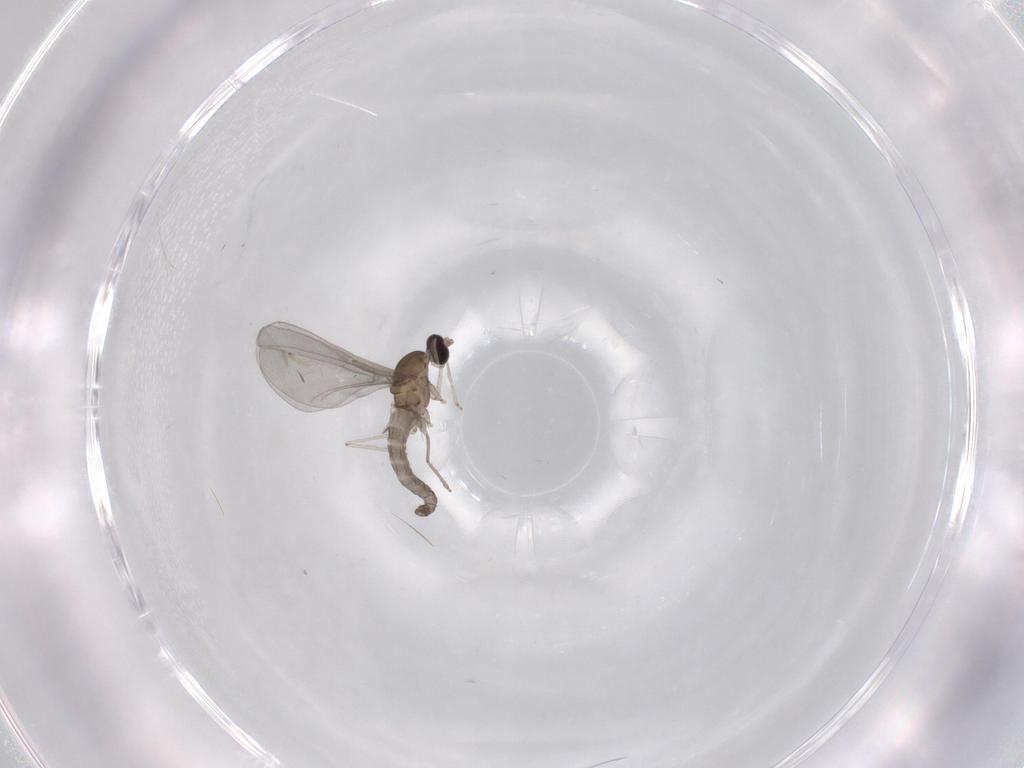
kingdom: Animalia
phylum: Arthropoda
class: Insecta
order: Diptera
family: Cecidomyiidae
